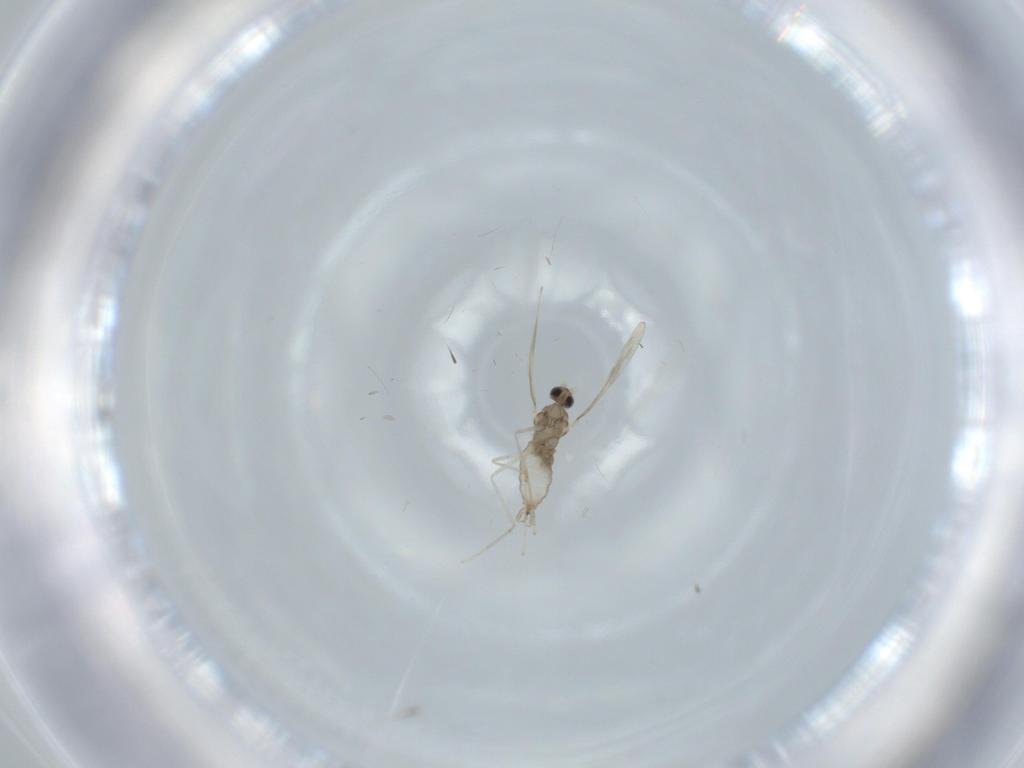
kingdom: Animalia
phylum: Arthropoda
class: Insecta
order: Diptera
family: Cecidomyiidae
